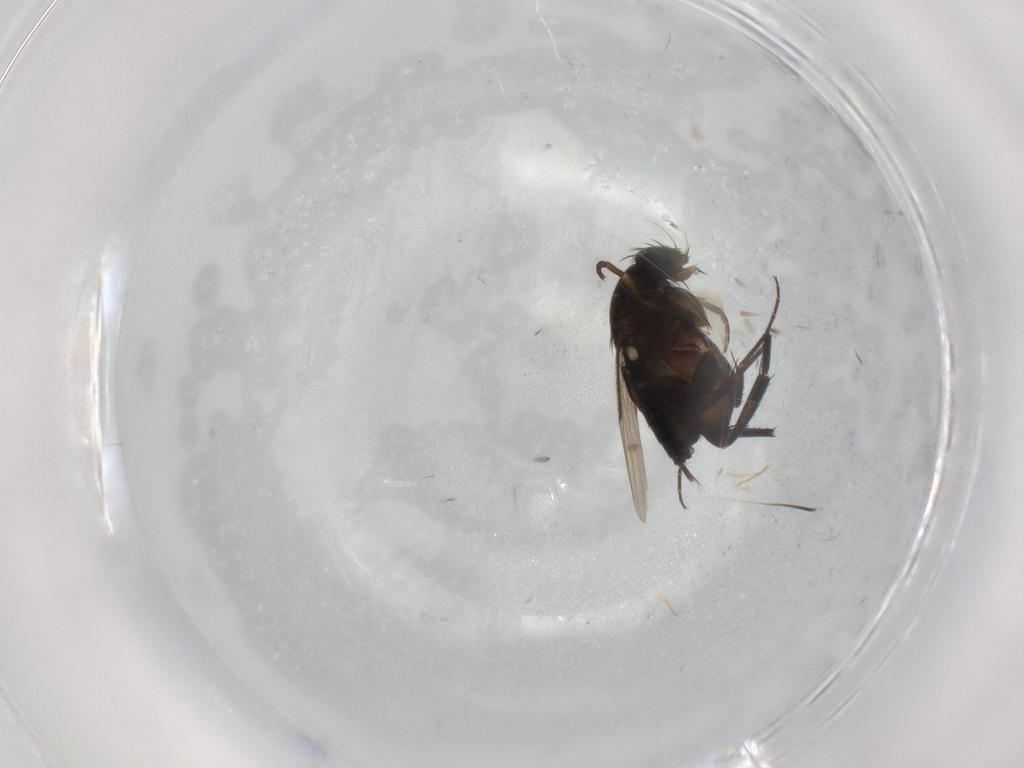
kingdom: Animalia
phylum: Arthropoda
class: Insecta
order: Diptera
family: Phoridae
